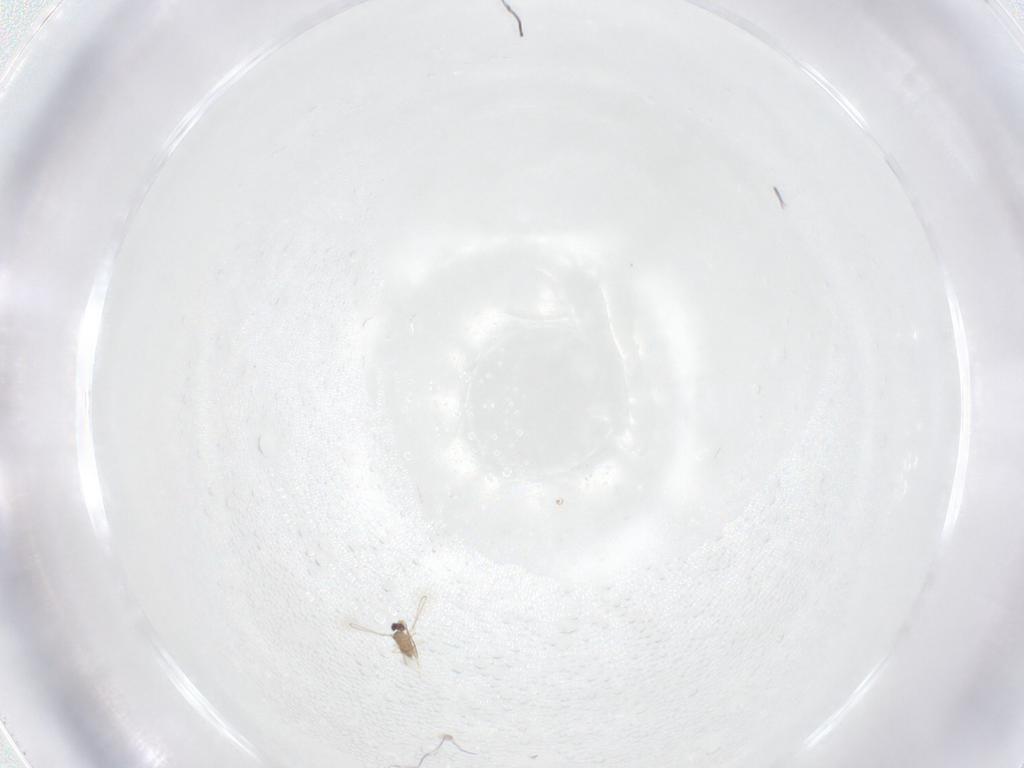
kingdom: Animalia
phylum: Arthropoda
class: Insecta
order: Hymenoptera
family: Mymaridae
